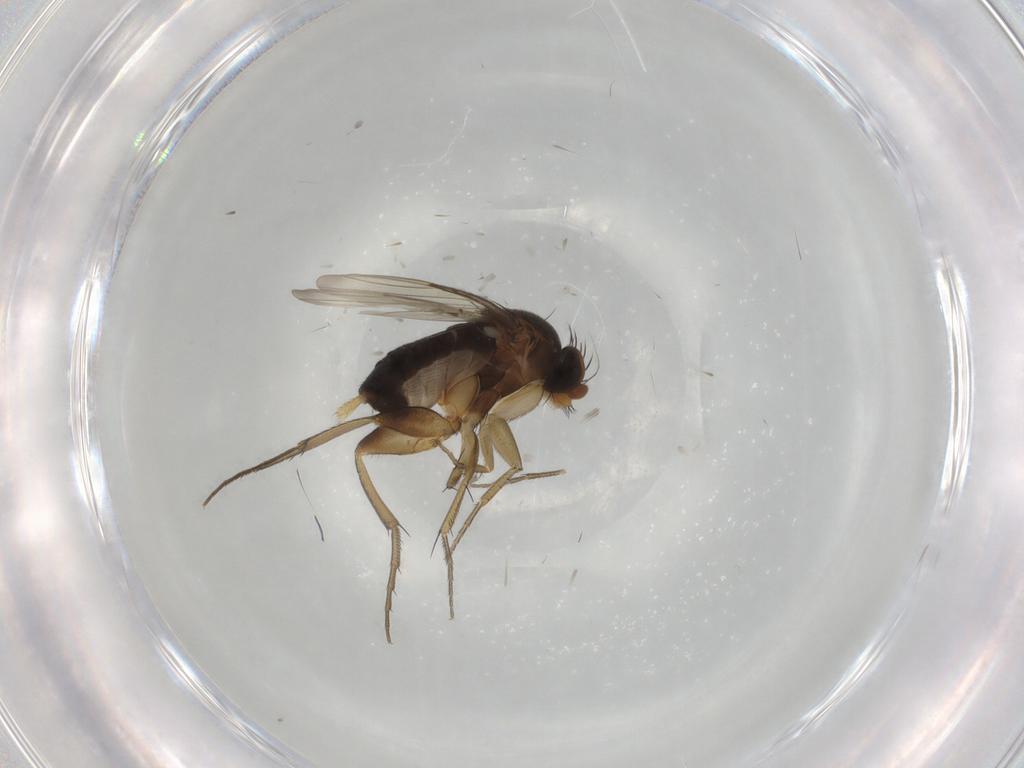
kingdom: Animalia
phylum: Arthropoda
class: Insecta
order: Diptera
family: Phoridae
